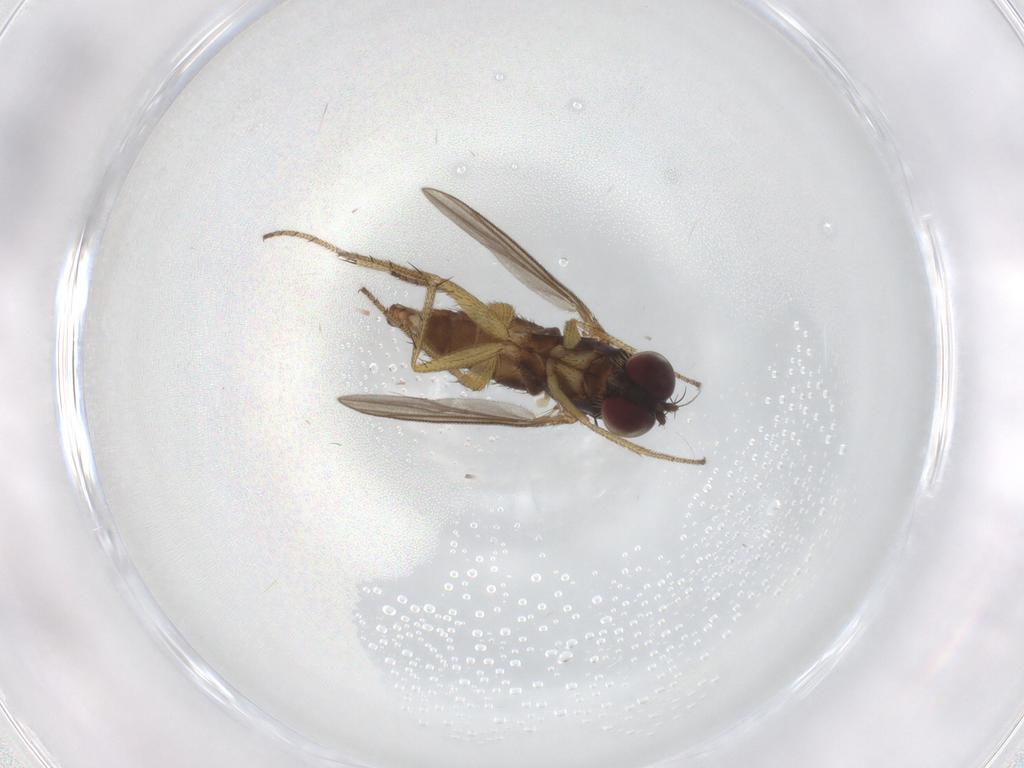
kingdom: Animalia
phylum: Arthropoda
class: Insecta
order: Diptera
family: Dolichopodidae
